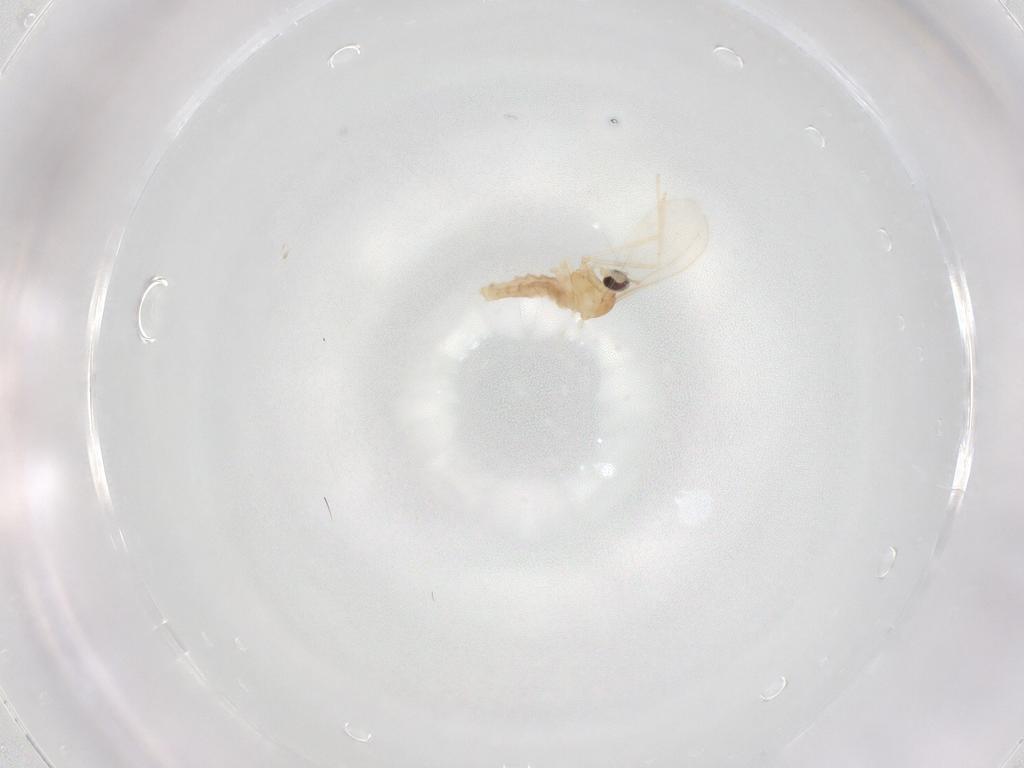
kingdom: Animalia
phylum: Arthropoda
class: Insecta
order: Diptera
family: Cecidomyiidae
